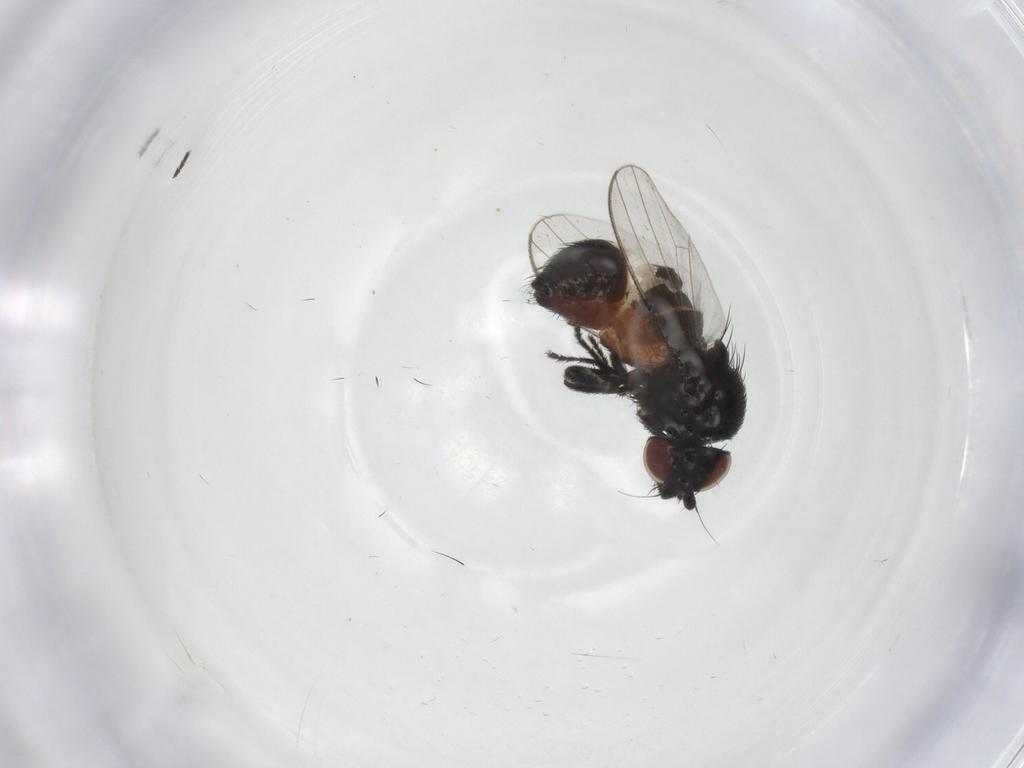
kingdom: Animalia
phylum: Arthropoda
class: Insecta
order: Diptera
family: Milichiidae
